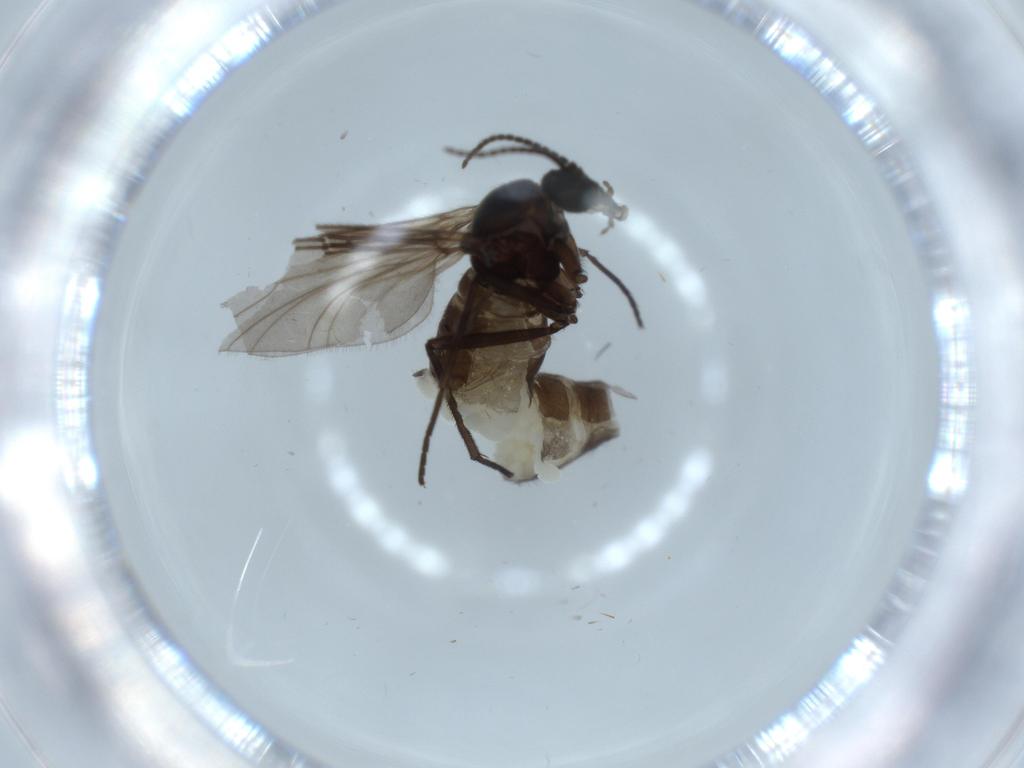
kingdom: Animalia
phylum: Arthropoda
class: Insecta
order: Diptera
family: Sciaridae
